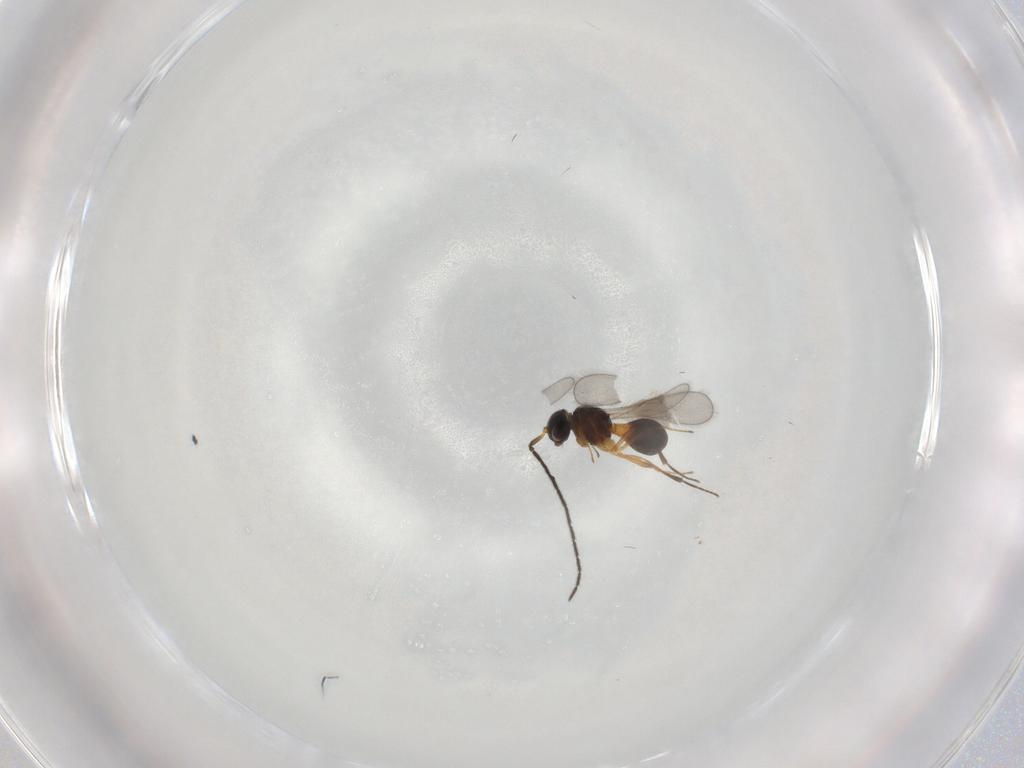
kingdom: Animalia
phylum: Arthropoda
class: Insecta
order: Hymenoptera
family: Scelionidae
